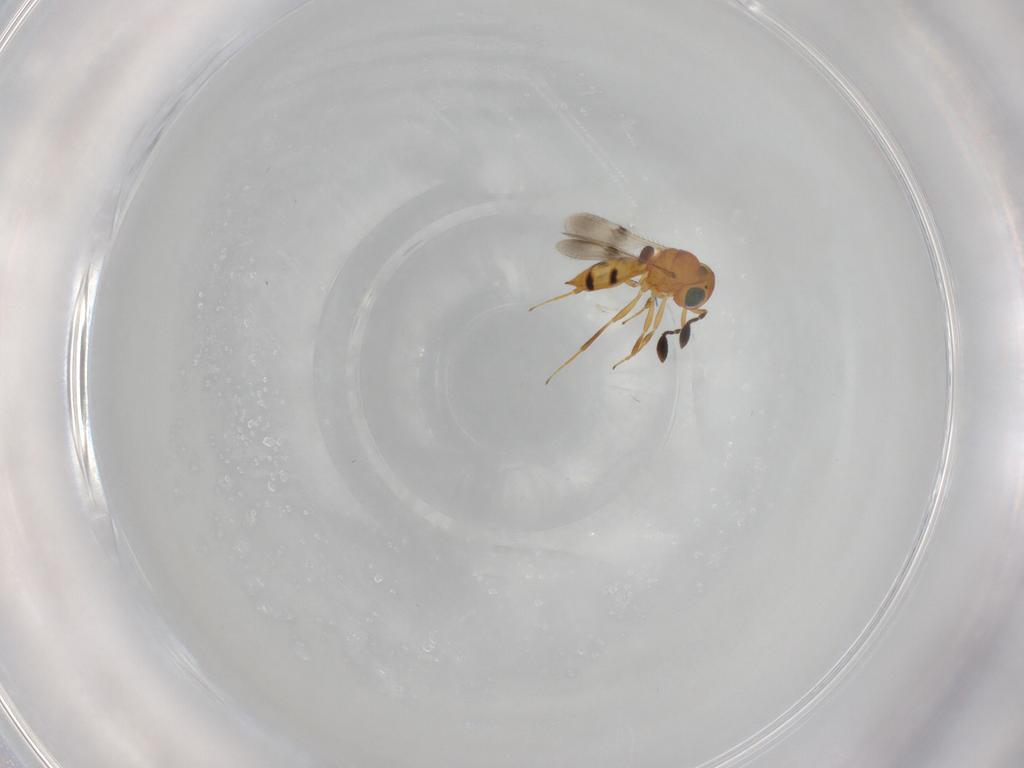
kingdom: Animalia
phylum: Arthropoda
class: Insecta
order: Hymenoptera
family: Scelionidae
